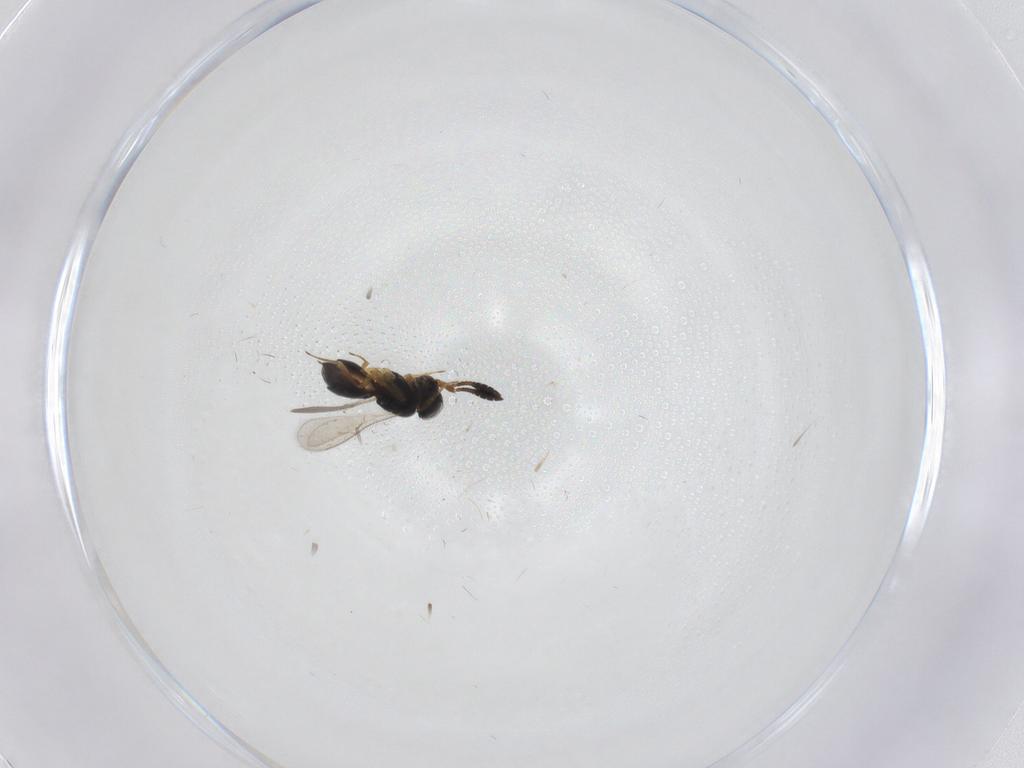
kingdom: Animalia
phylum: Arthropoda
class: Insecta
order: Hymenoptera
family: Scelionidae
